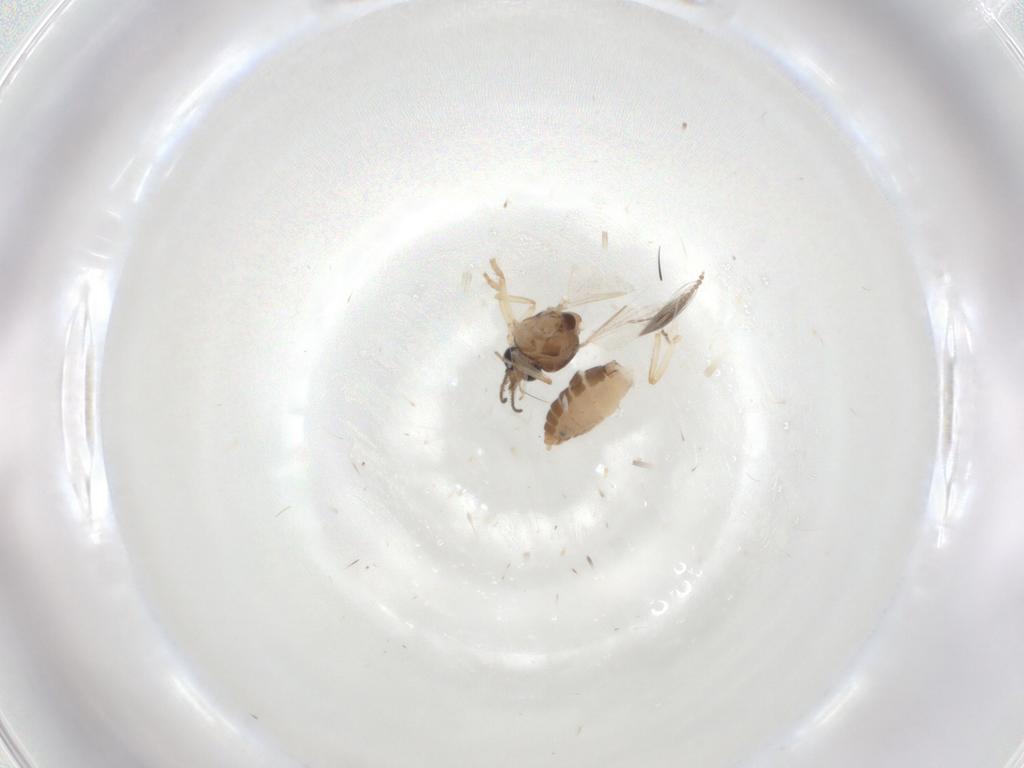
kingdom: Animalia
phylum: Arthropoda
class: Insecta
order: Diptera
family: Ceratopogonidae
